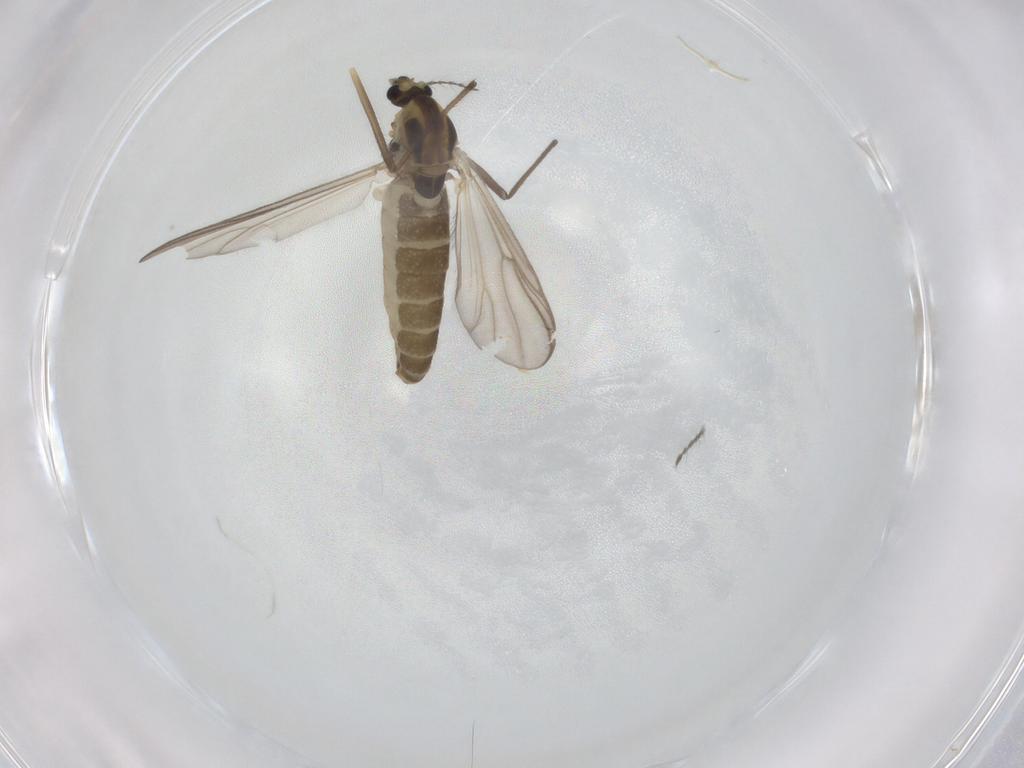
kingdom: Animalia
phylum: Arthropoda
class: Insecta
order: Diptera
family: Chironomidae
